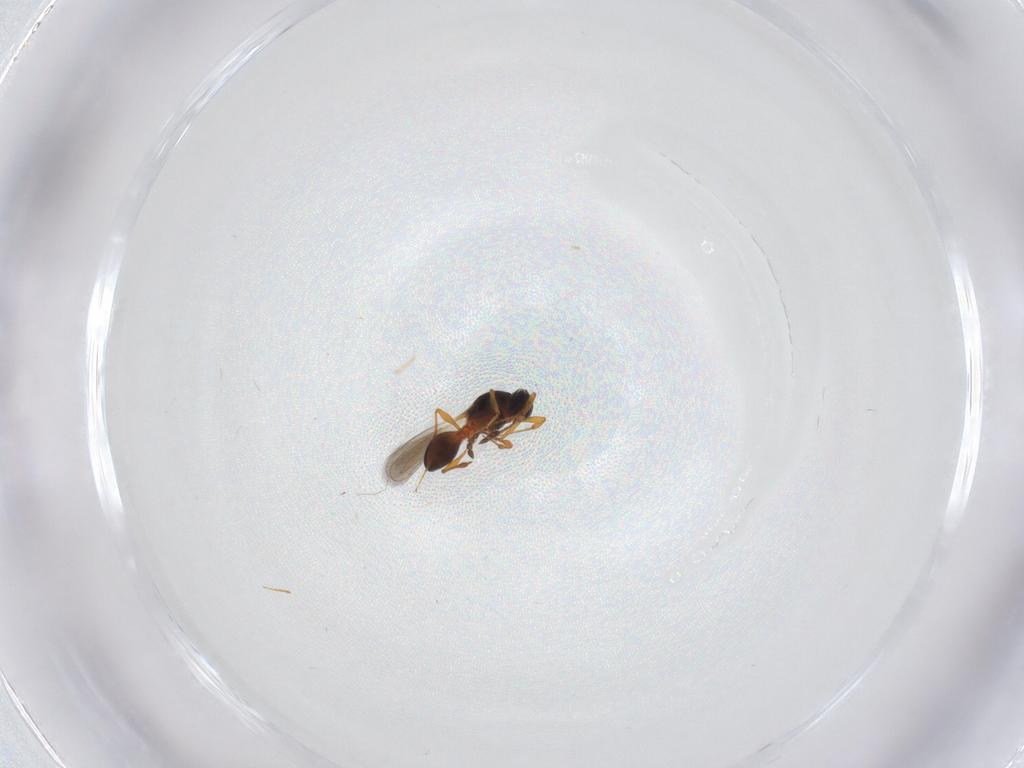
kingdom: Animalia
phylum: Arthropoda
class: Insecta
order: Hymenoptera
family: Platygastridae
